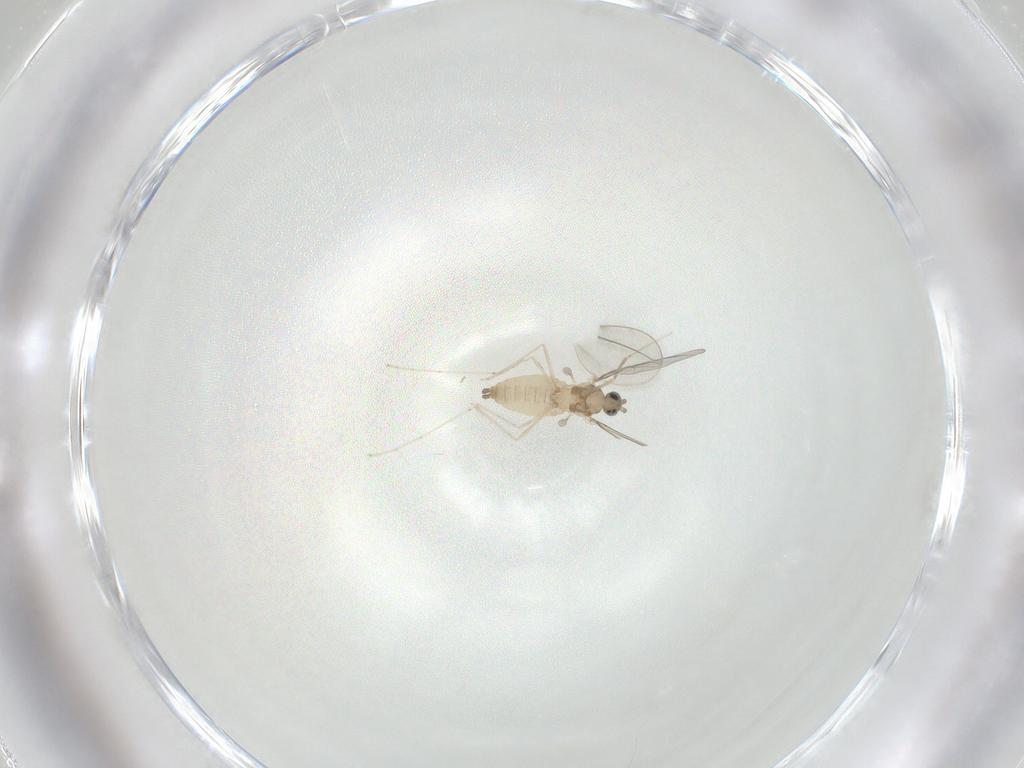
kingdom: Animalia
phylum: Arthropoda
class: Insecta
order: Diptera
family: Cecidomyiidae
